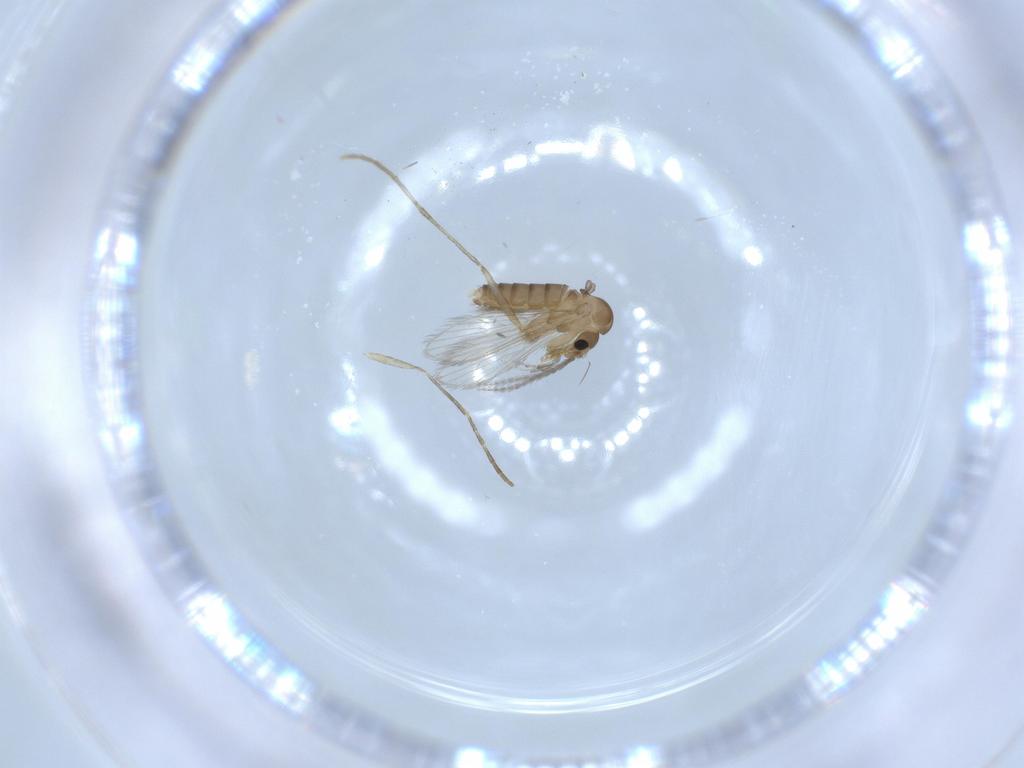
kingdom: Animalia
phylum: Arthropoda
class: Insecta
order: Diptera
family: Psychodidae
